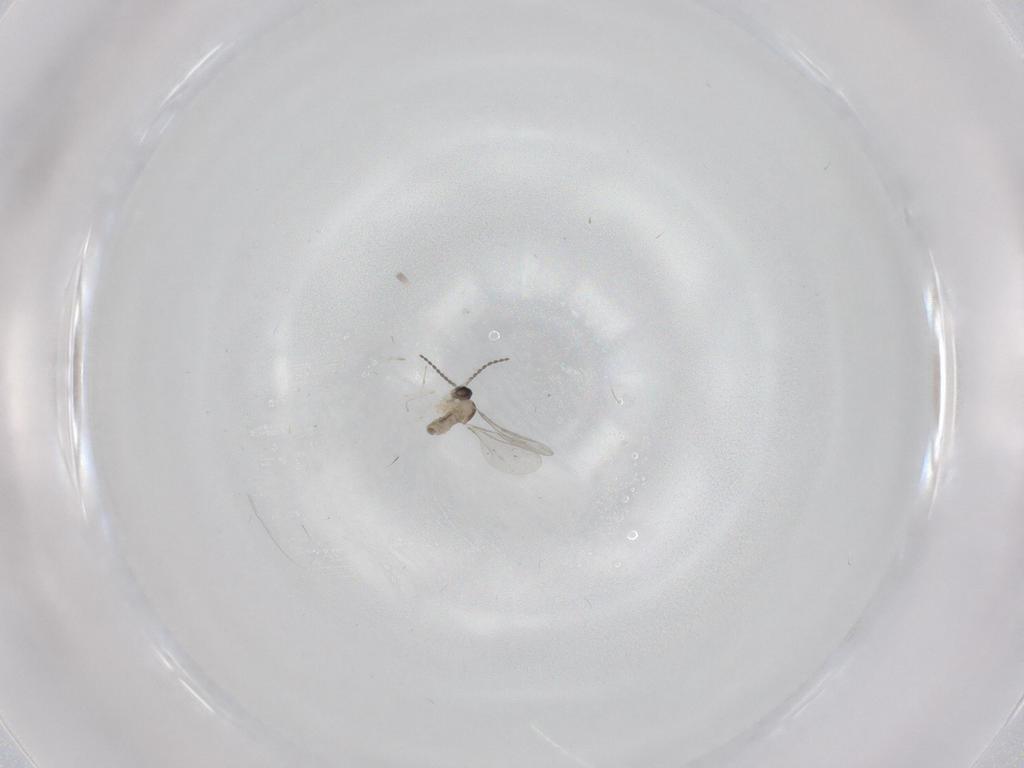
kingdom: Animalia
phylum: Arthropoda
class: Insecta
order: Diptera
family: Cecidomyiidae
